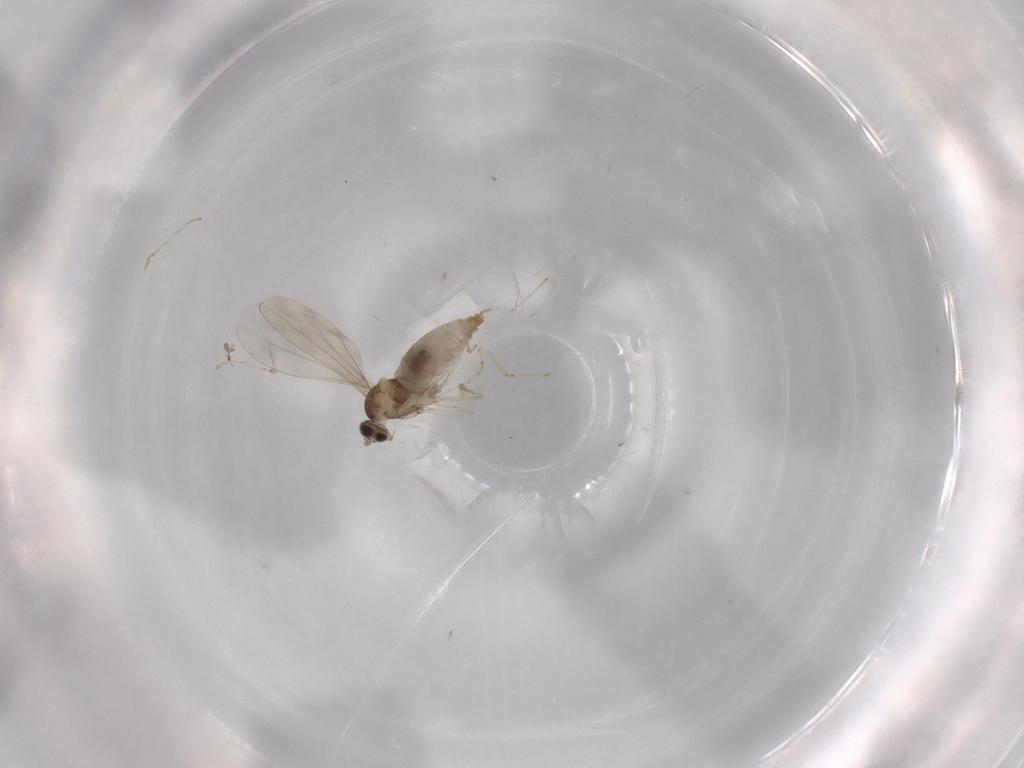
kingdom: Animalia
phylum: Arthropoda
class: Insecta
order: Diptera
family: Cecidomyiidae
